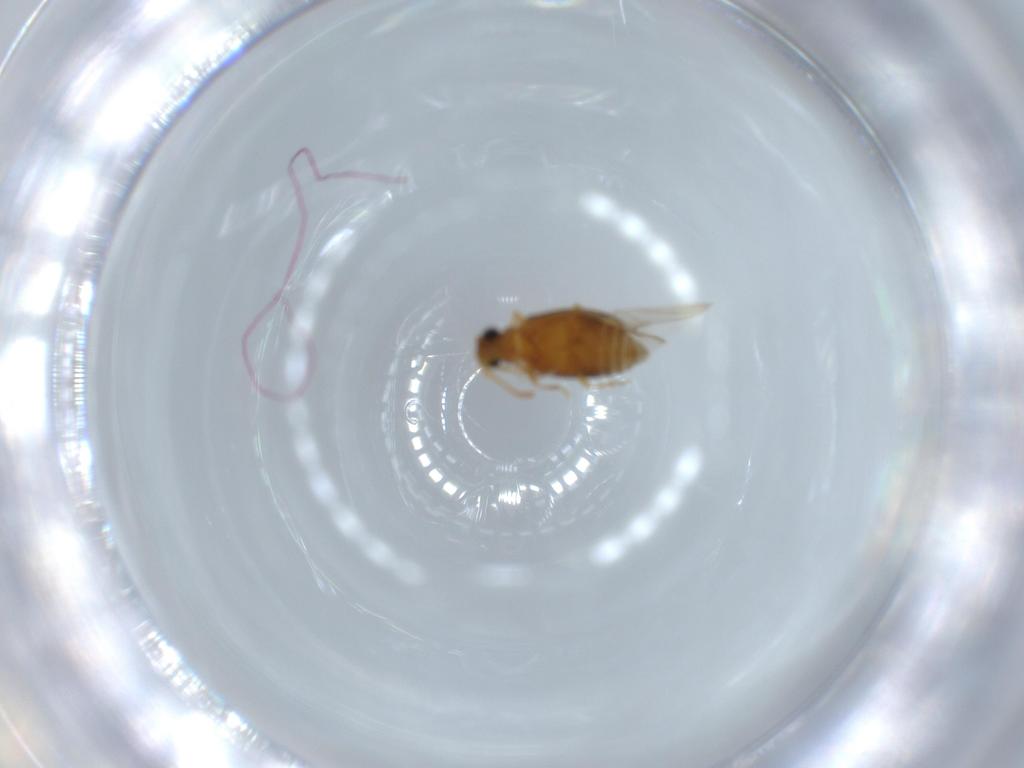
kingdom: Animalia
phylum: Arthropoda
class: Insecta
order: Coleoptera
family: Aderidae
